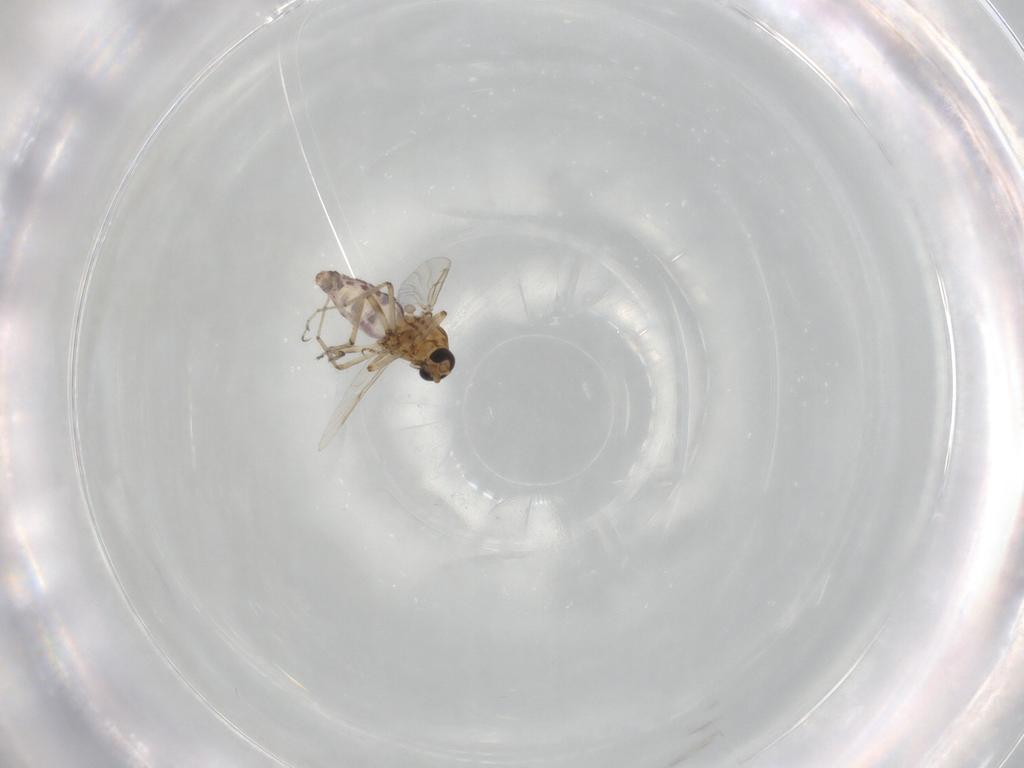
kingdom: Animalia
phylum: Arthropoda
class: Insecta
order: Diptera
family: Ceratopogonidae
